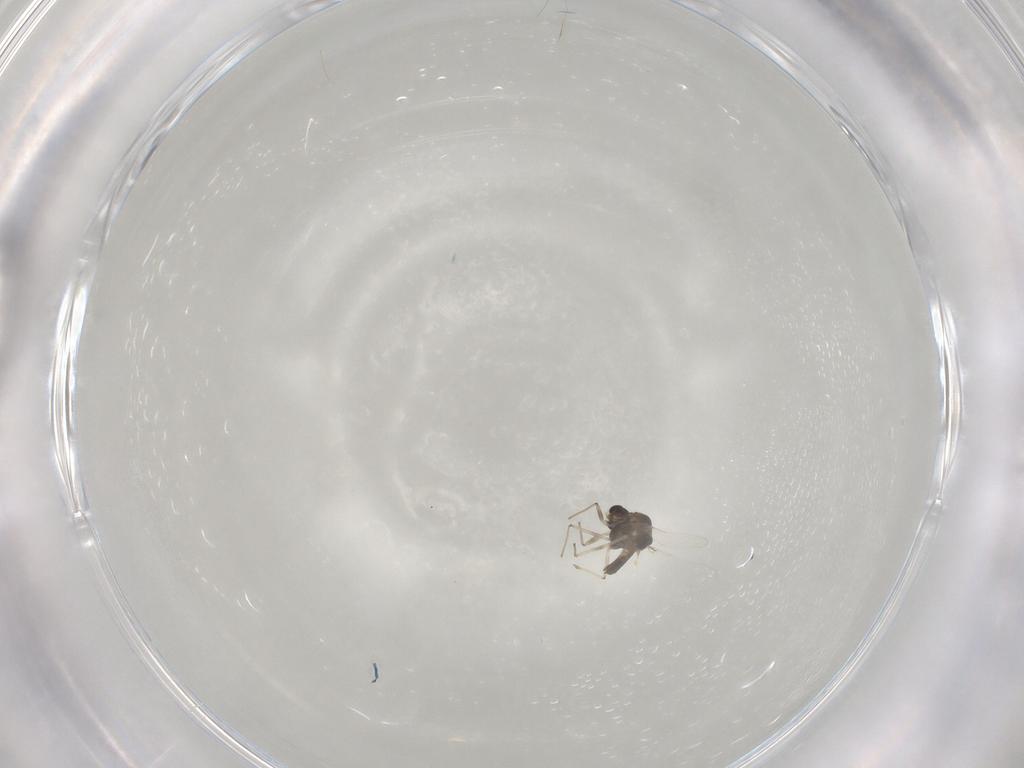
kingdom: Animalia
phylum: Arthropoda
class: Insecta
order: Diptera
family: Chironomidae
